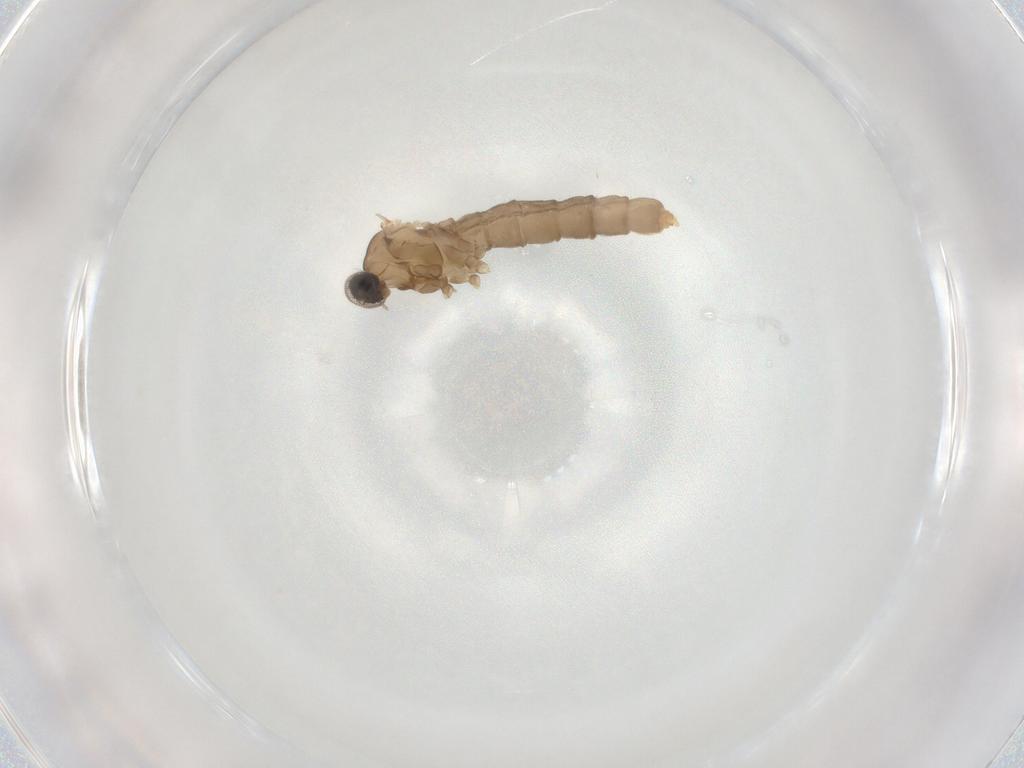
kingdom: Animalia
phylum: Arthropoda
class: Insecta
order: Diptera
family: Cecidomyiidae
